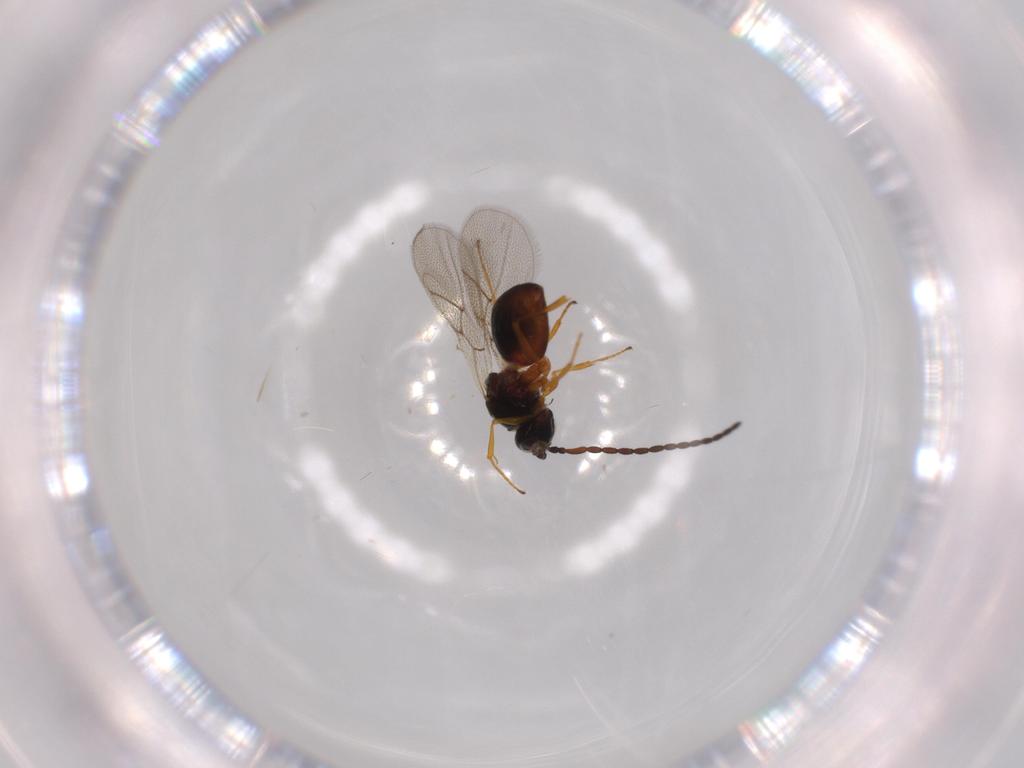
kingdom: Animalia
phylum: Arthropoda
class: Insecta
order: Hymenoptera
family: Figitidae
